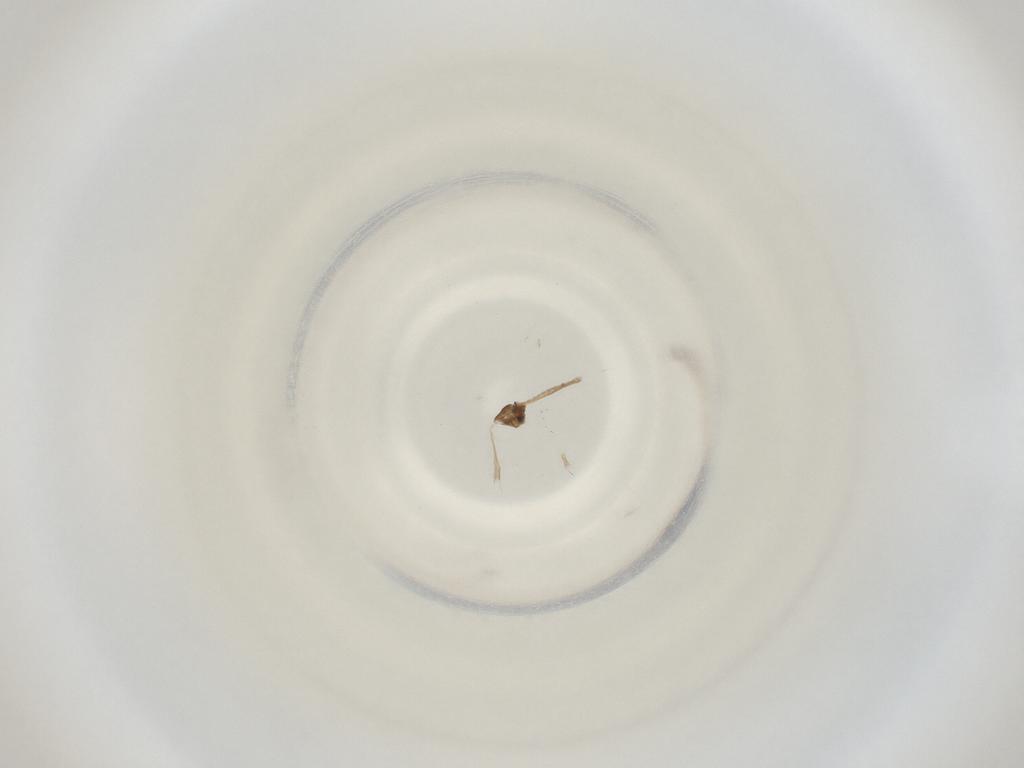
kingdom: Animalia
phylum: Arthropoda
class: Insecta
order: Diptera
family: Cecidomyiidae
